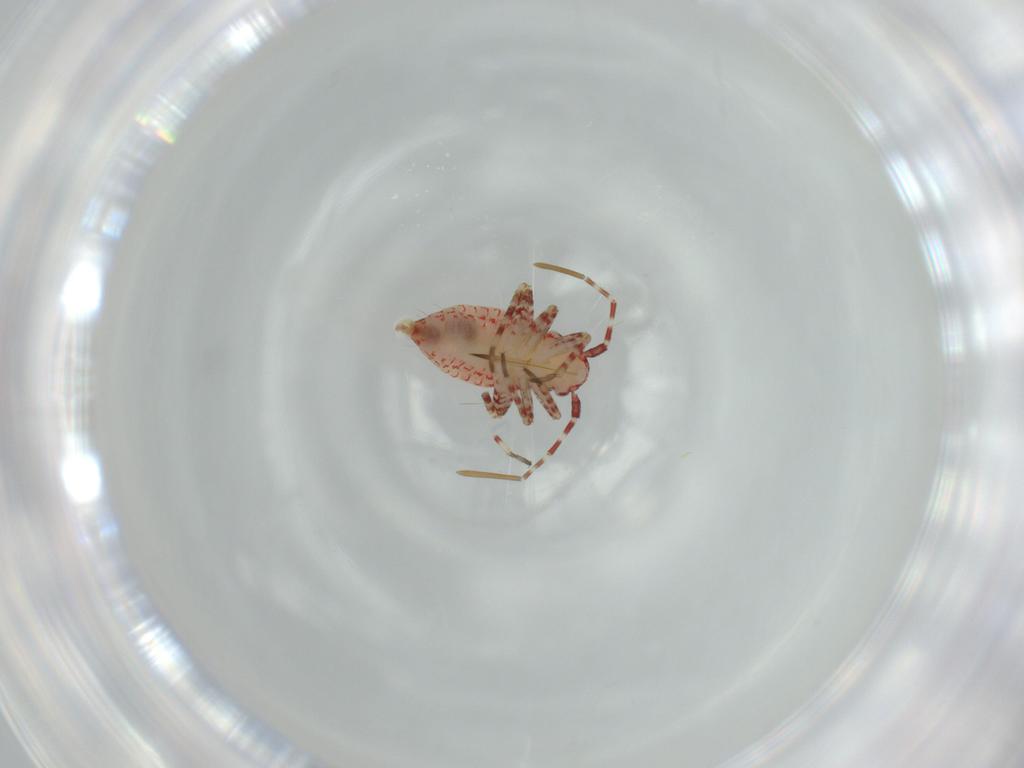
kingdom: Animalia
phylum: Arthropoda
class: Insecta
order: Hemiptera
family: Miridae
